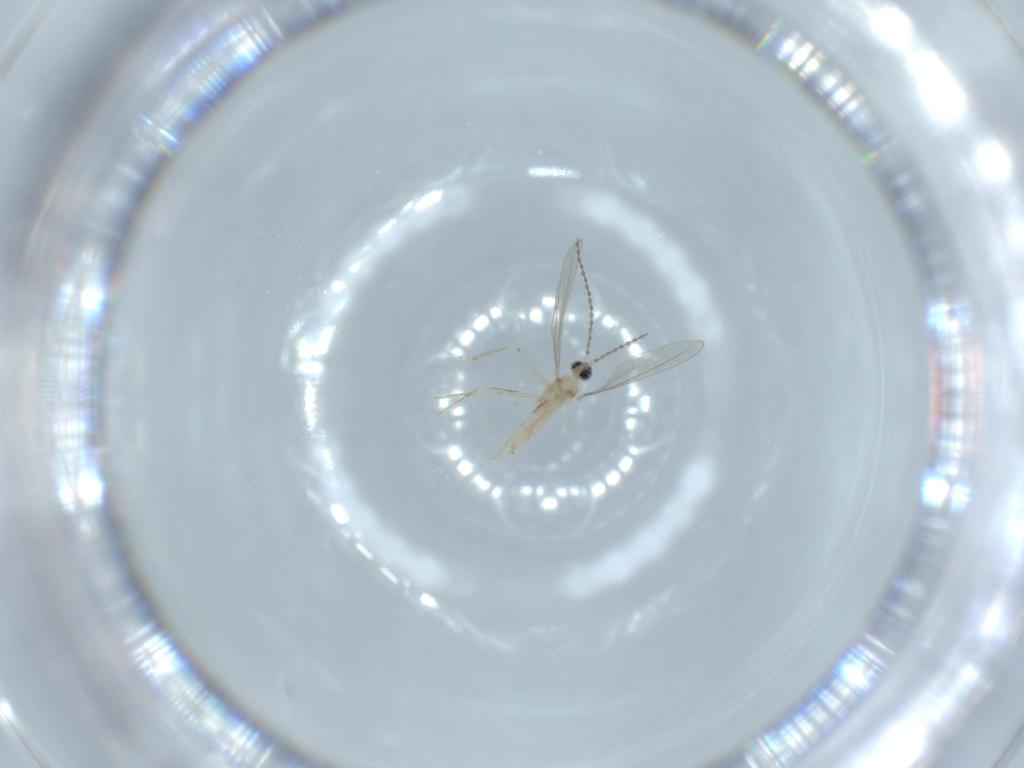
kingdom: Animalia
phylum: Arthropoda
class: Insecta
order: Diptera
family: Cecidomyiidae
